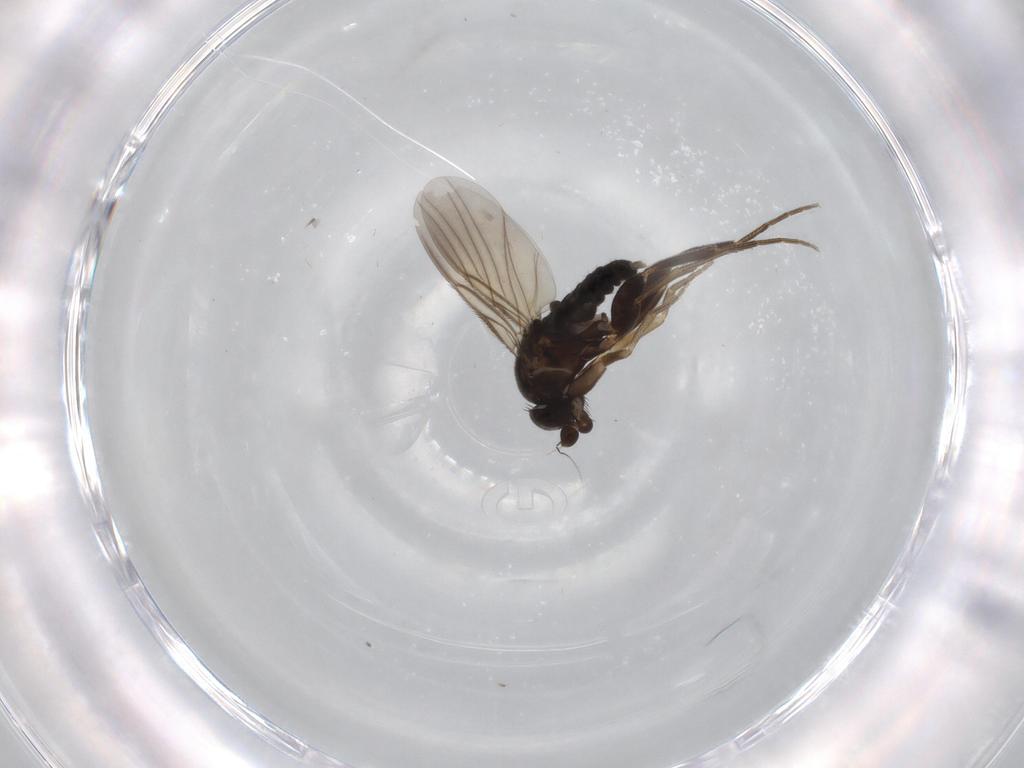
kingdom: Animalia
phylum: Arthropoda
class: Insecta
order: Diptera
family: Phoridae
